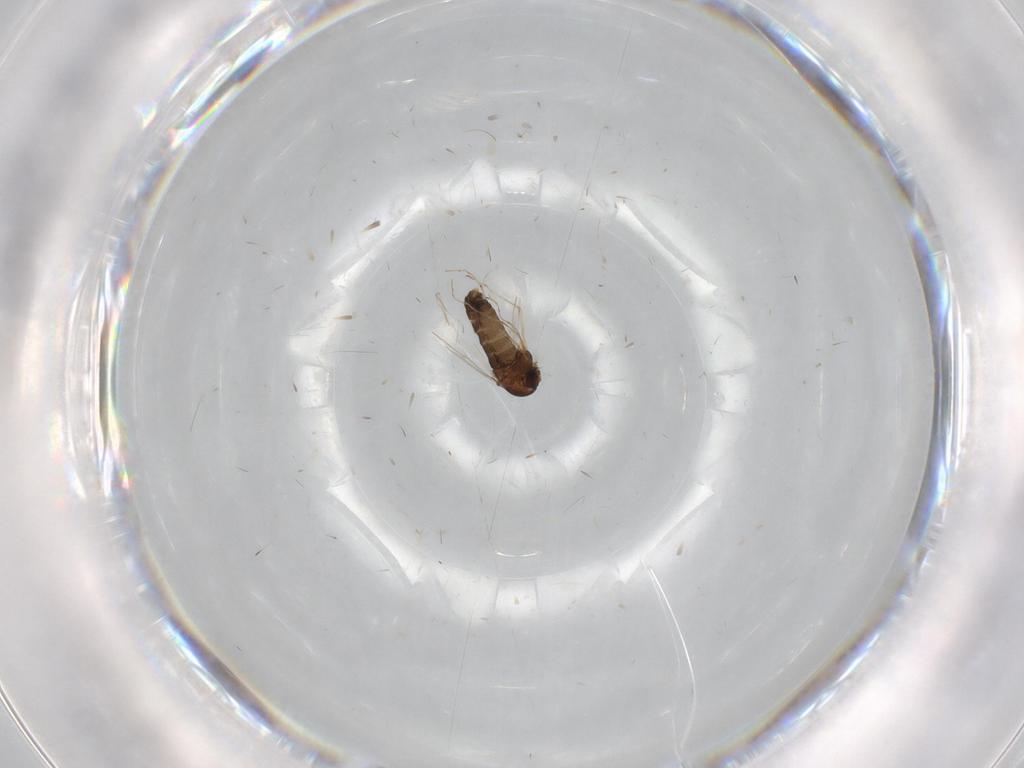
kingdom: Animalia
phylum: Arthropoda
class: Insecta
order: Diptera
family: Chironomidae
